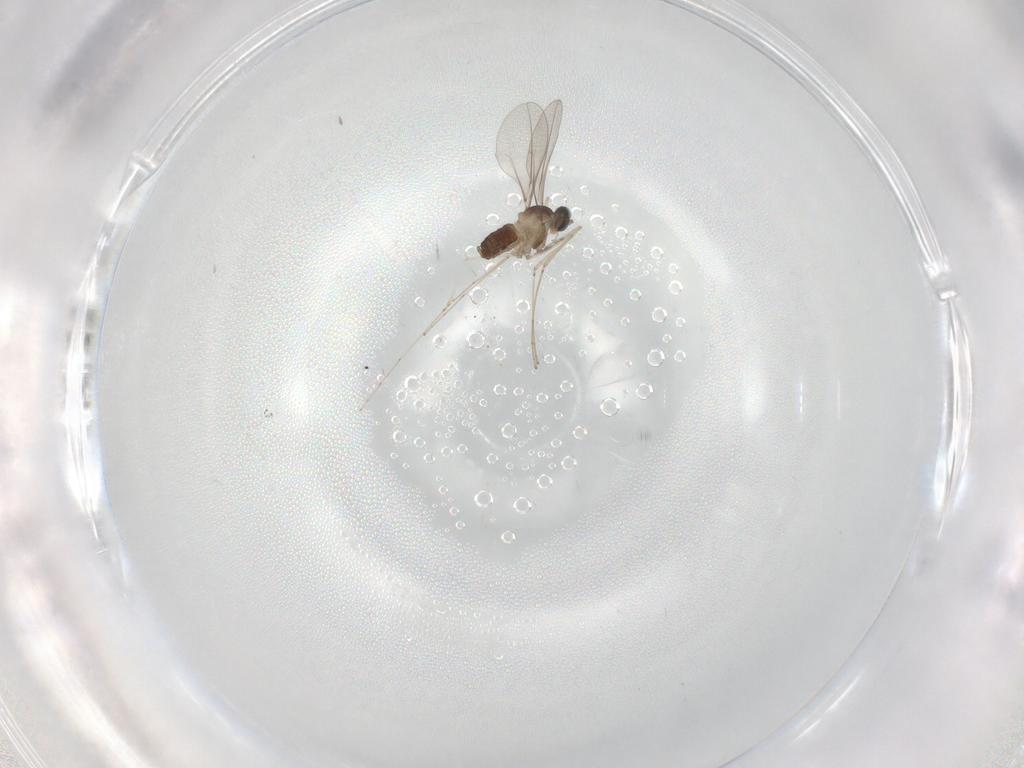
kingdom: Animalia
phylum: Arthropoda
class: Insecta
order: Diptera
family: Cecidomyiidae
